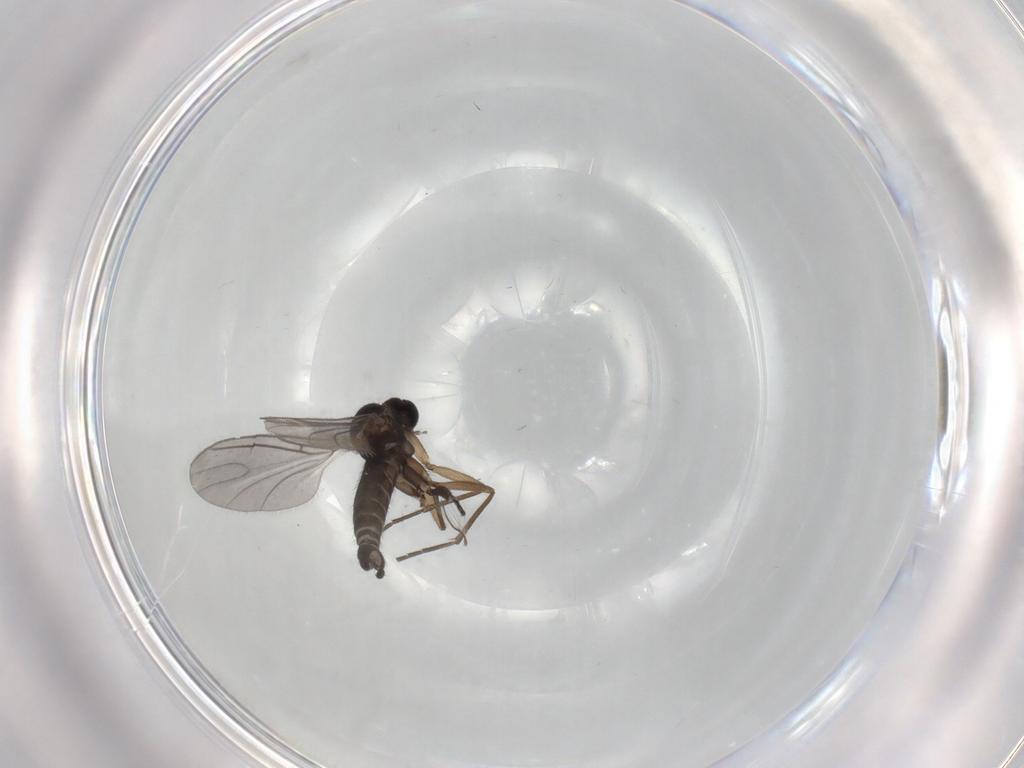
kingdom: Animalia
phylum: Arthropoda
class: Insecta
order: Diptera
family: Sciaridae
